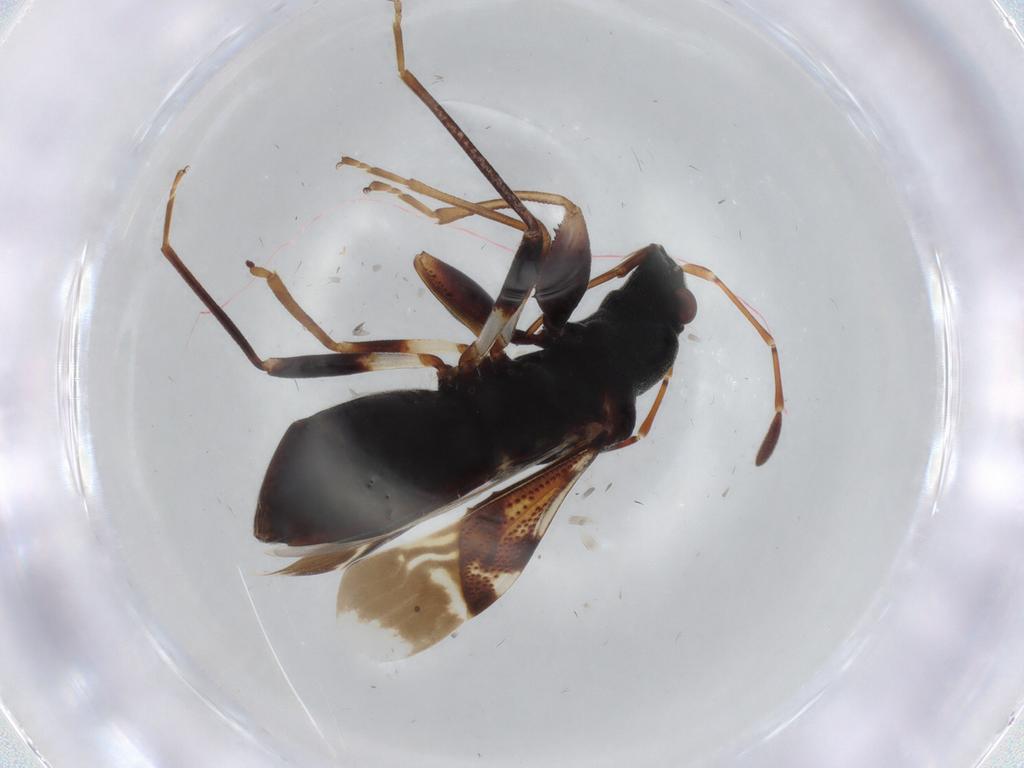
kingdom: Animalia
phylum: Arthropoda
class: Insecta
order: Hemiptera
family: Rhyparochromidae
